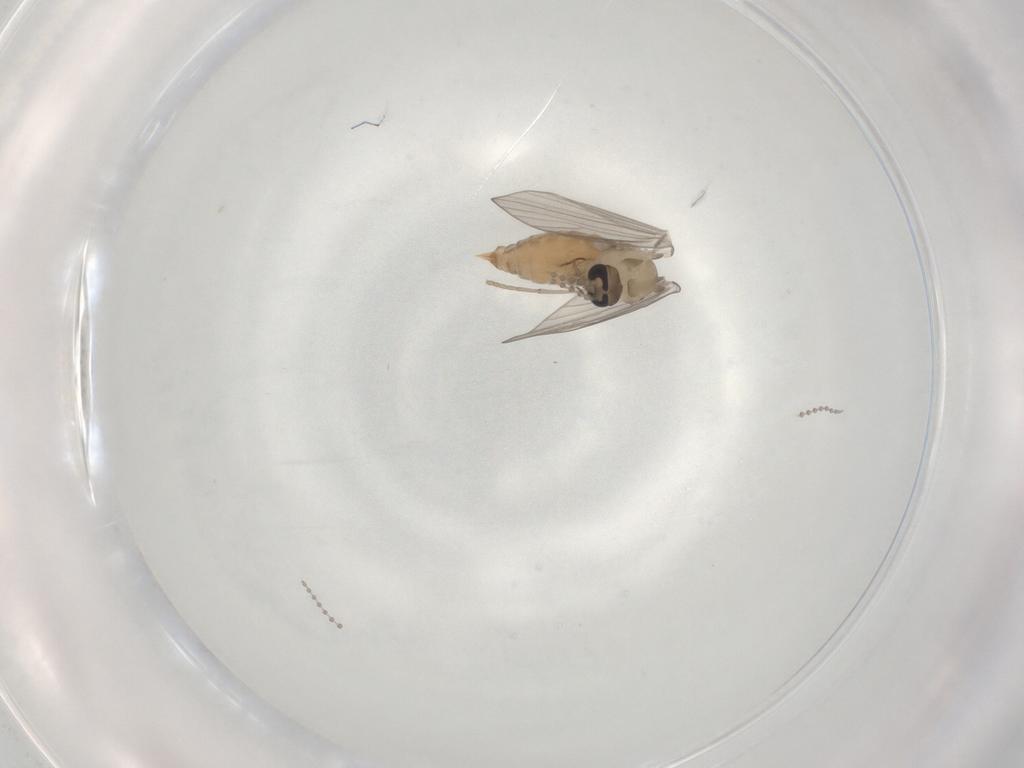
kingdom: Animalia
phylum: Arthropoda
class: Insecta
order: Diptera
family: Psychodidae
